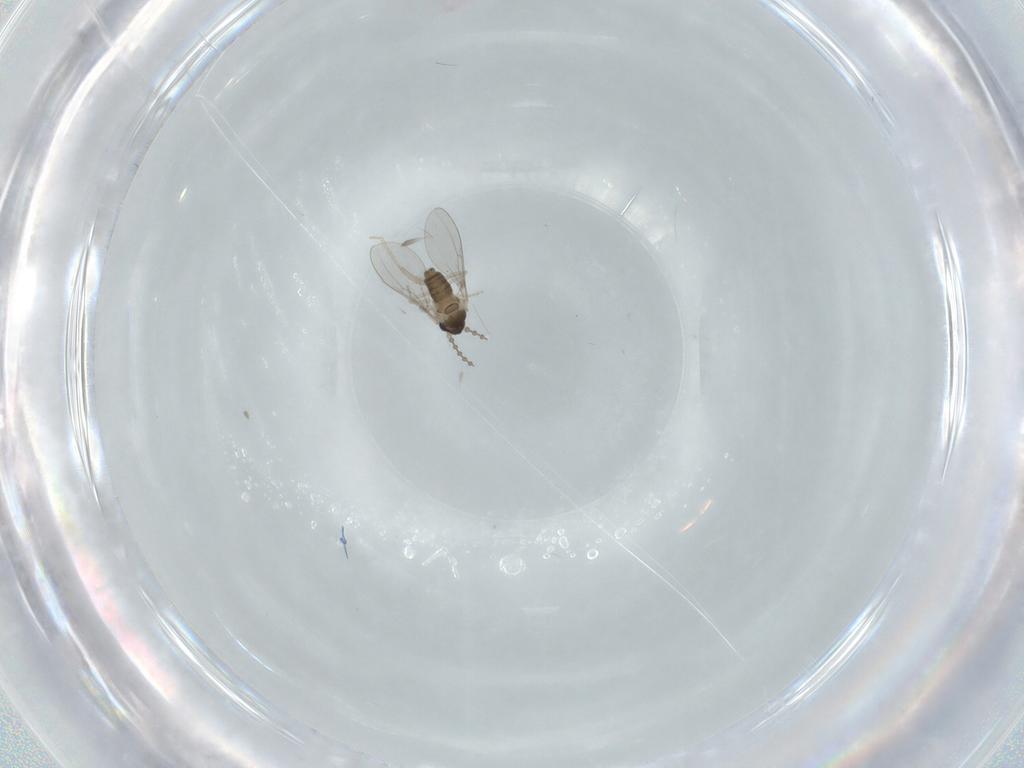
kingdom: Animalia
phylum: Arthropoda
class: Insecta
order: Diptera
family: Cecidomyiidae
